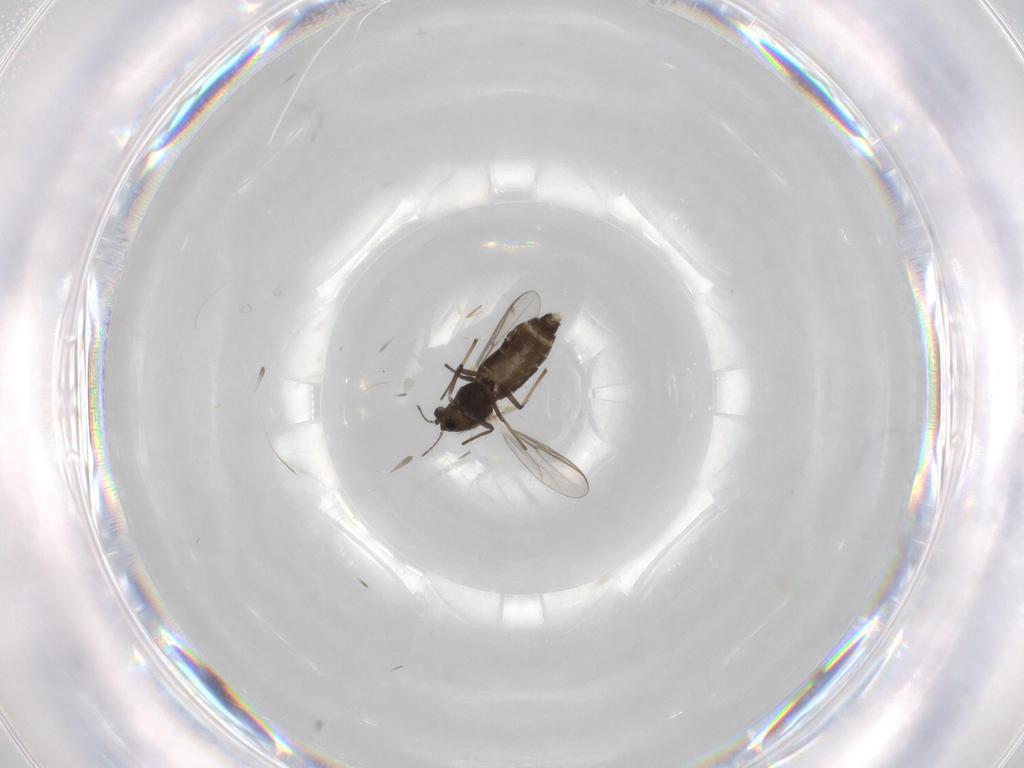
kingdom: Animalia
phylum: Arthropoda
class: Insecta
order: Diptera
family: Chironomidae
